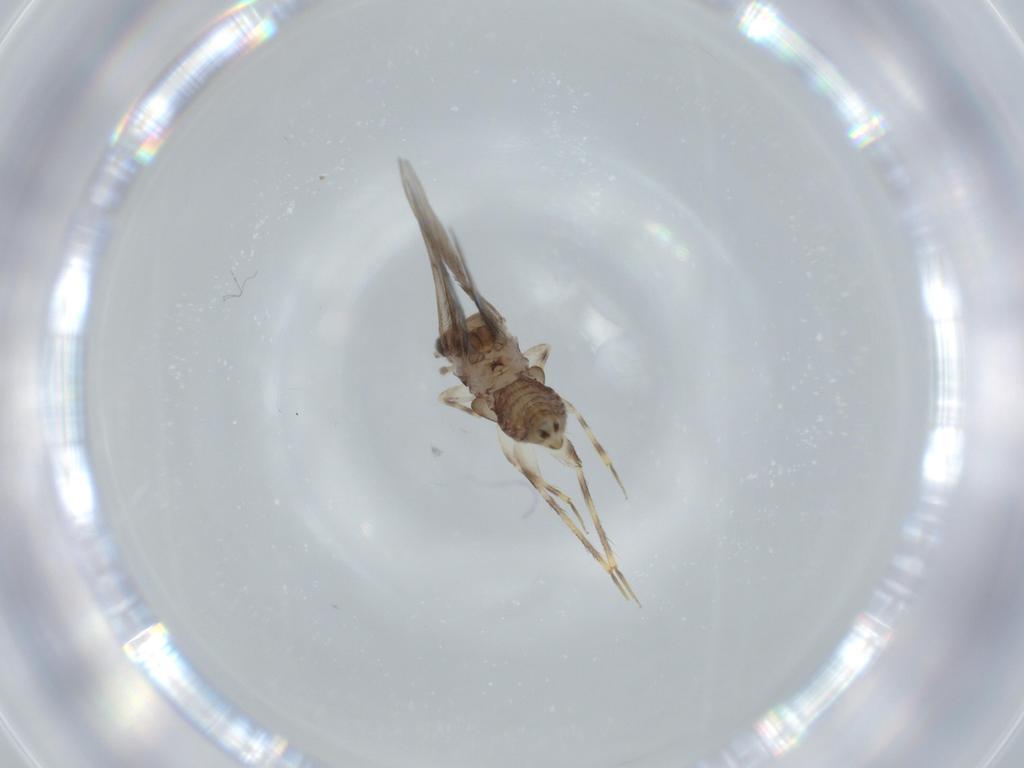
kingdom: Animalia
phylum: Arthropoda
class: Insecta
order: Psocodea
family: Lepidopsocidae
